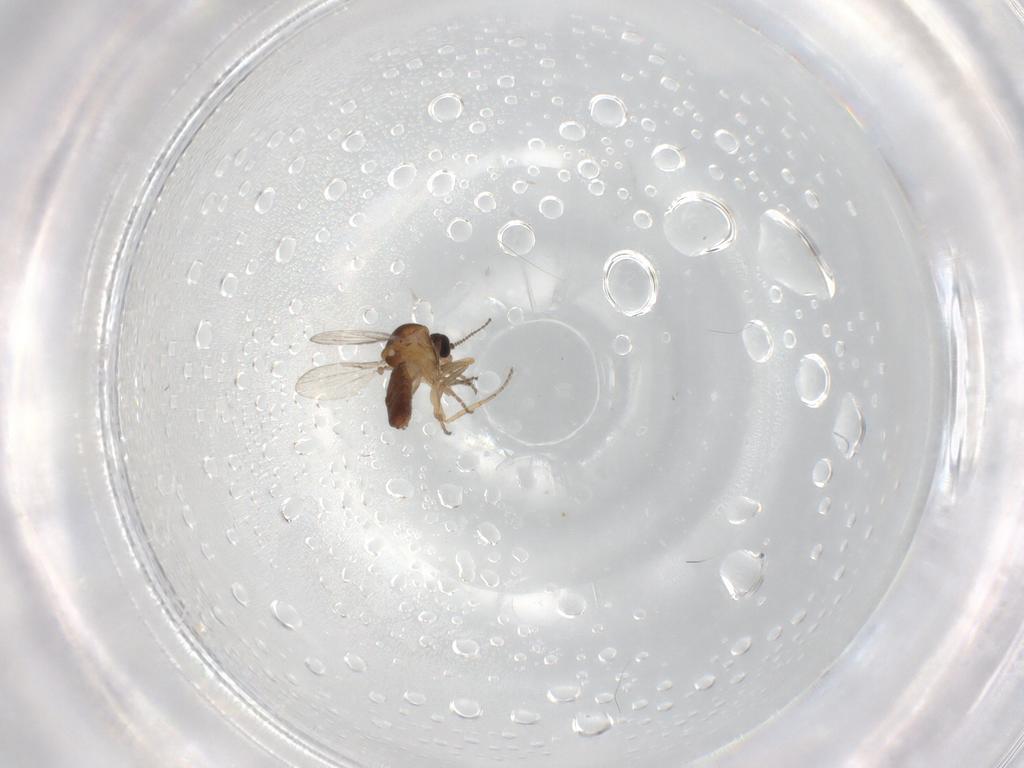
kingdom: Animalia
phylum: Arthropoda
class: Insecta
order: Diptera
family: Ceratopogonidae
